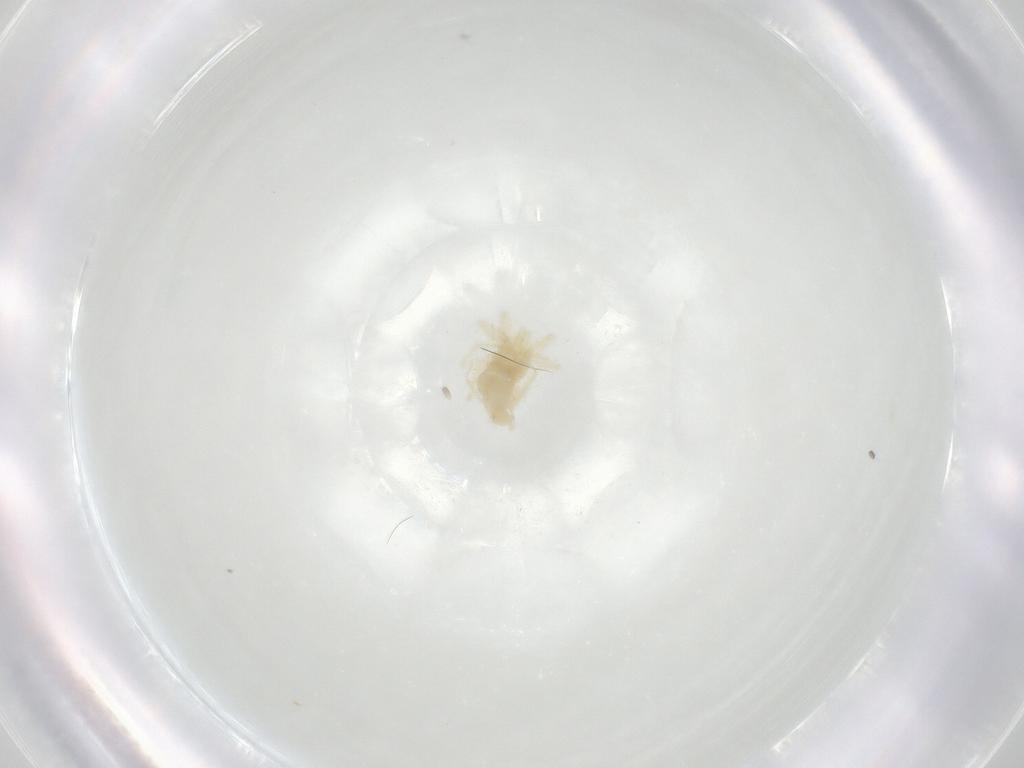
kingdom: Animalia
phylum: Arthropoda
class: Arachnida
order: Trombidiformes
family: Anystidae
